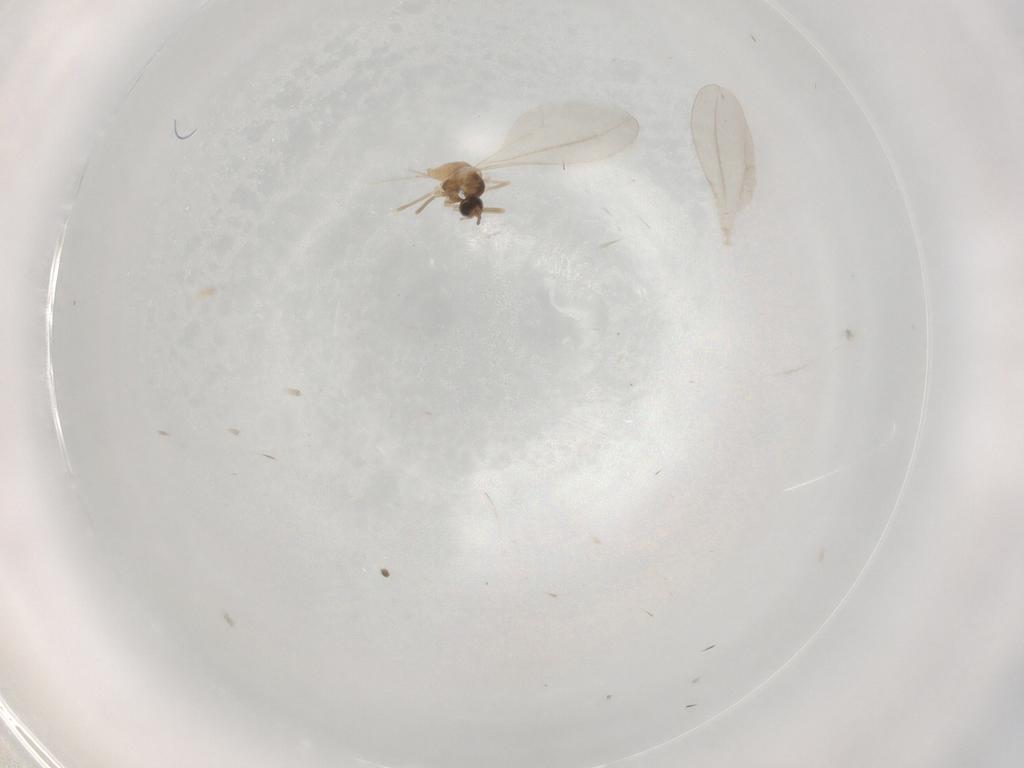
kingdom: Animalia
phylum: Arthropoda
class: Insecta
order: Diptera
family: Cecidomyiidae
